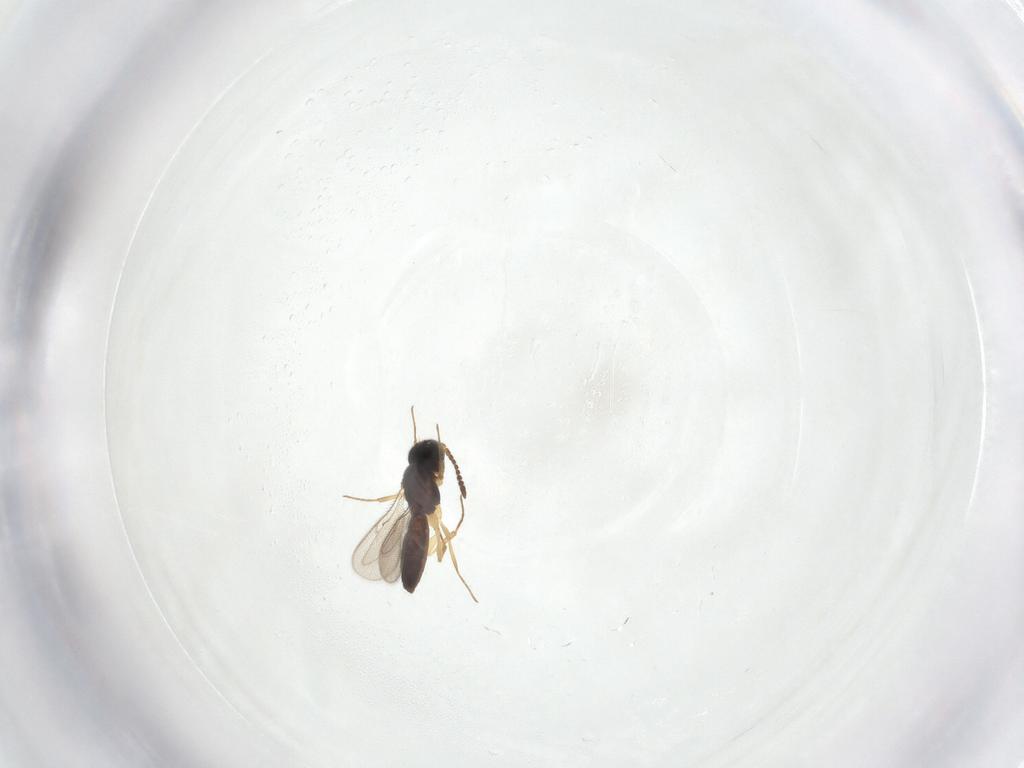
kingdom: Animalia
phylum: Arthropoda
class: Insecta
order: Hymenoptera
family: Scelionidae
